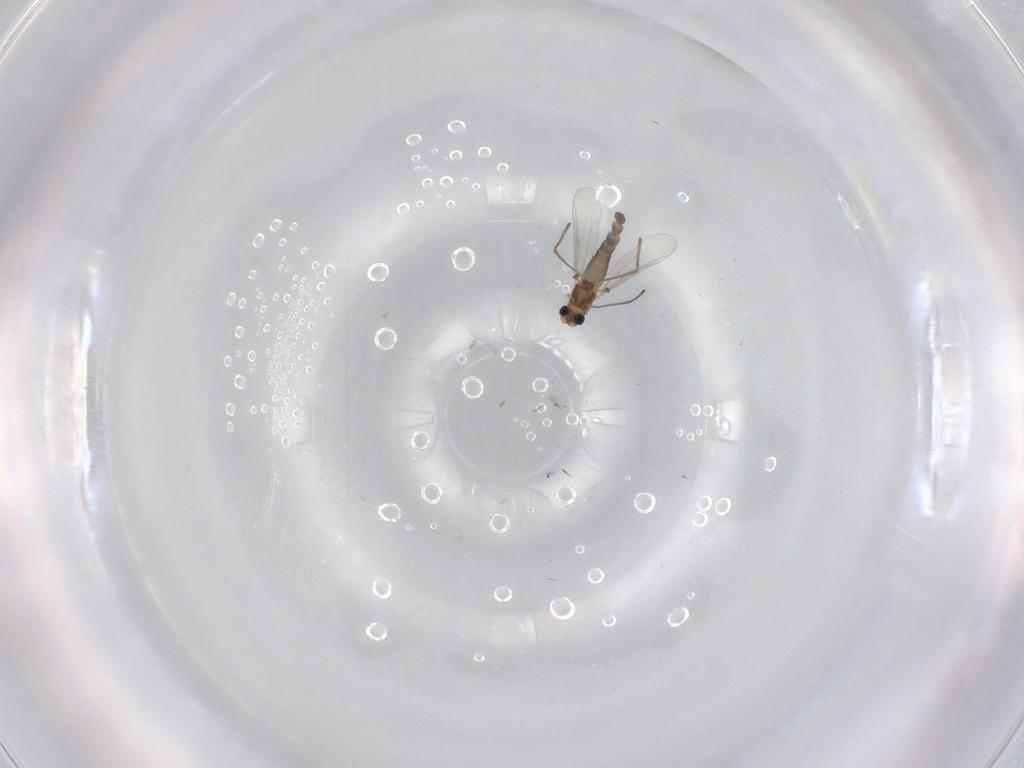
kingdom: Animalia
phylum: Arthropoda
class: Insecta
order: Diptera
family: Chironomidae
